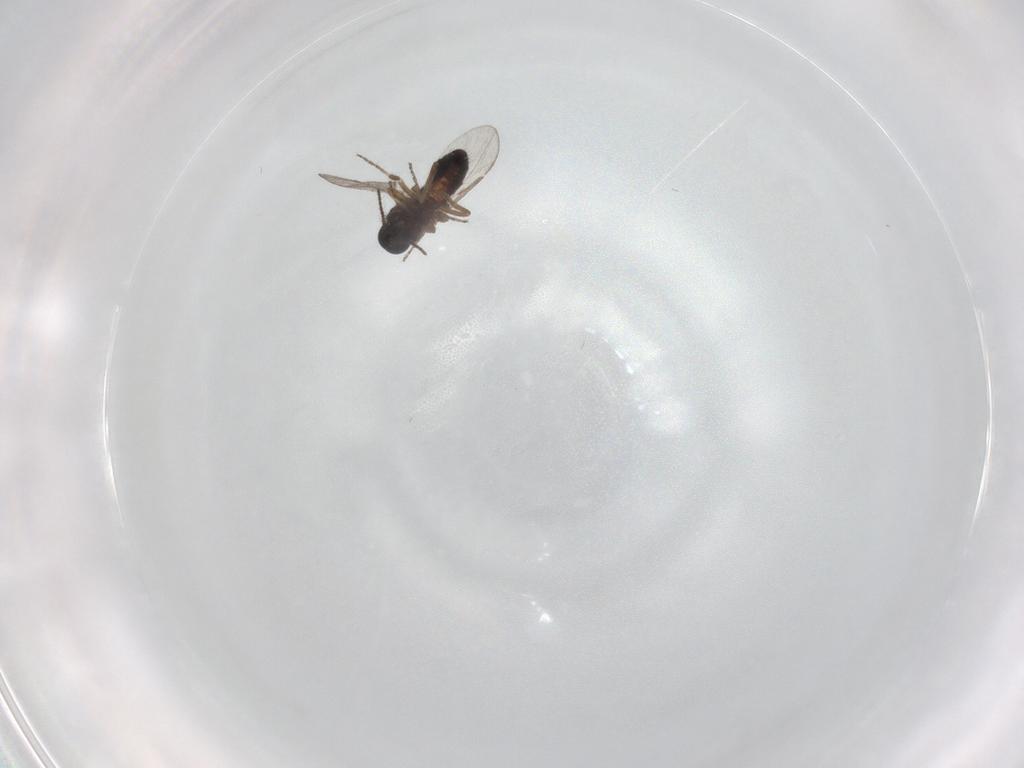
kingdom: Animalia
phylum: Arthropoda
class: Insecta
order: Diptera
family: Ceratopogonidae
